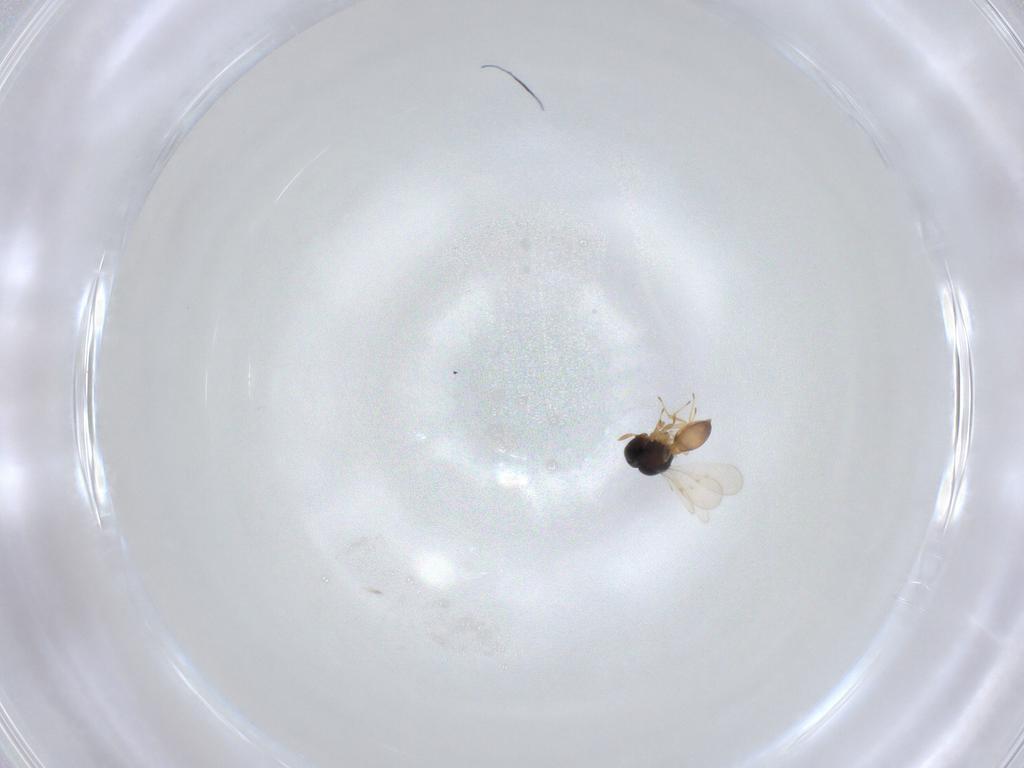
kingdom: Animalia
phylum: Arthropoda
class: Insecta
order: Hymenoptera
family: Scelionidae
